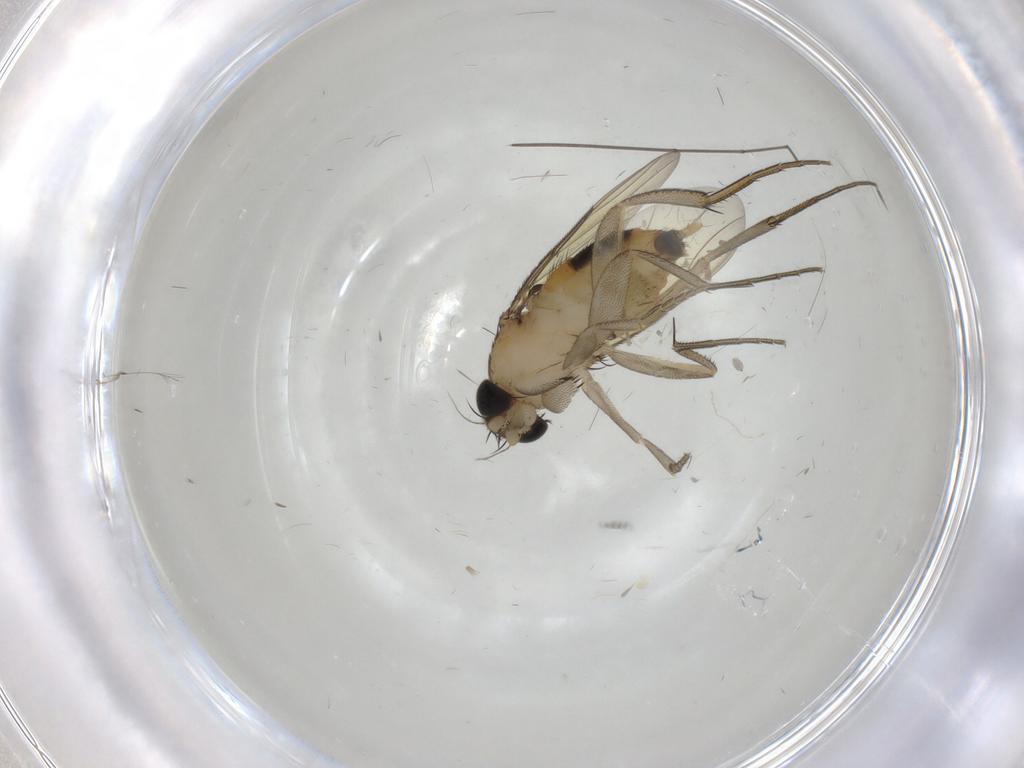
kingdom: Animalia
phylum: Arthropoda
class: Insecta
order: Diptera
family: Phoridae
